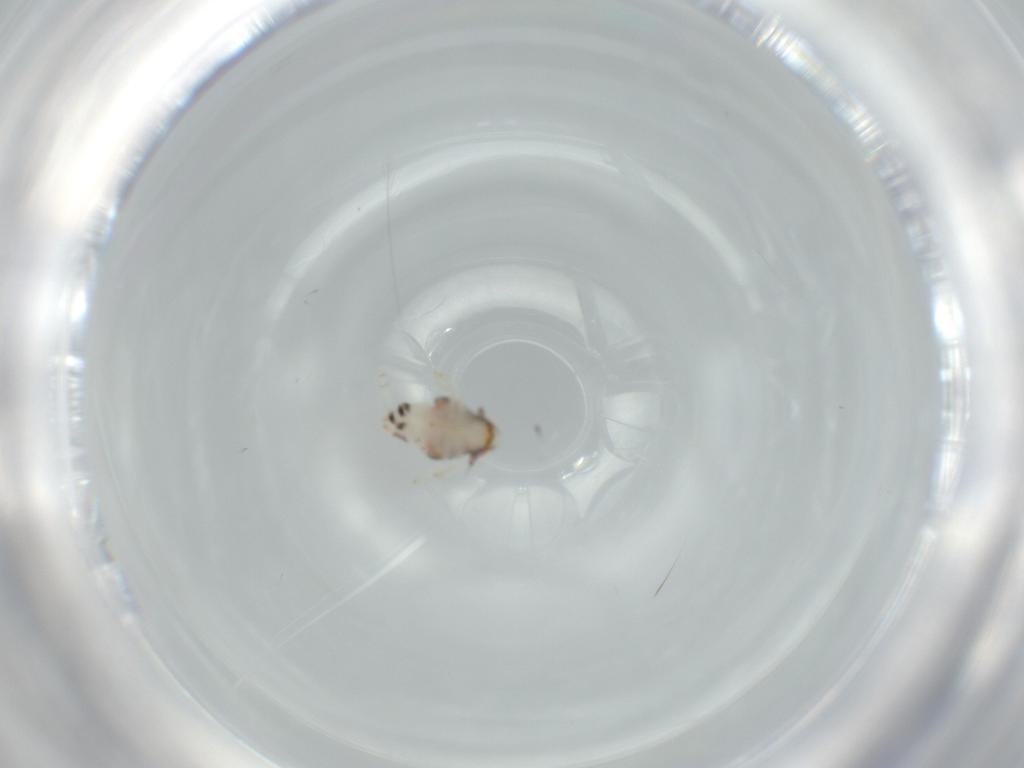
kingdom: Animalia
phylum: Arthropoda
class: Insecta
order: Hemiptera
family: Nogodinidae
